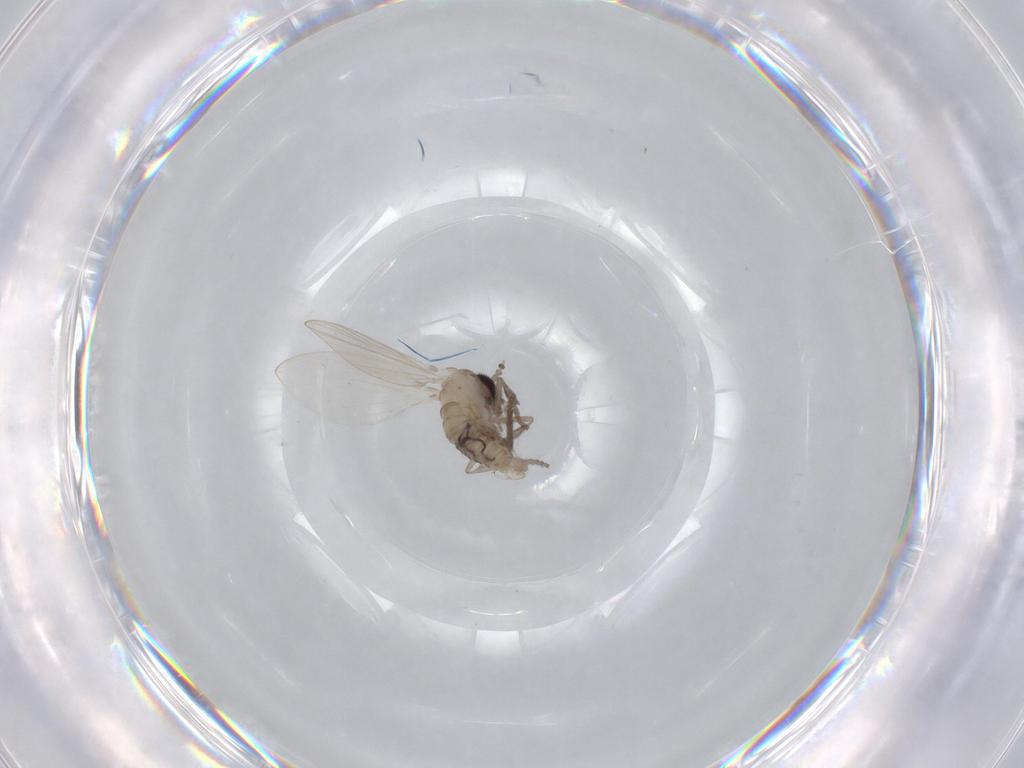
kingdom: Animalia
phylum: Arthropoda
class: Insecta
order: Diptera
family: Psychodidae
